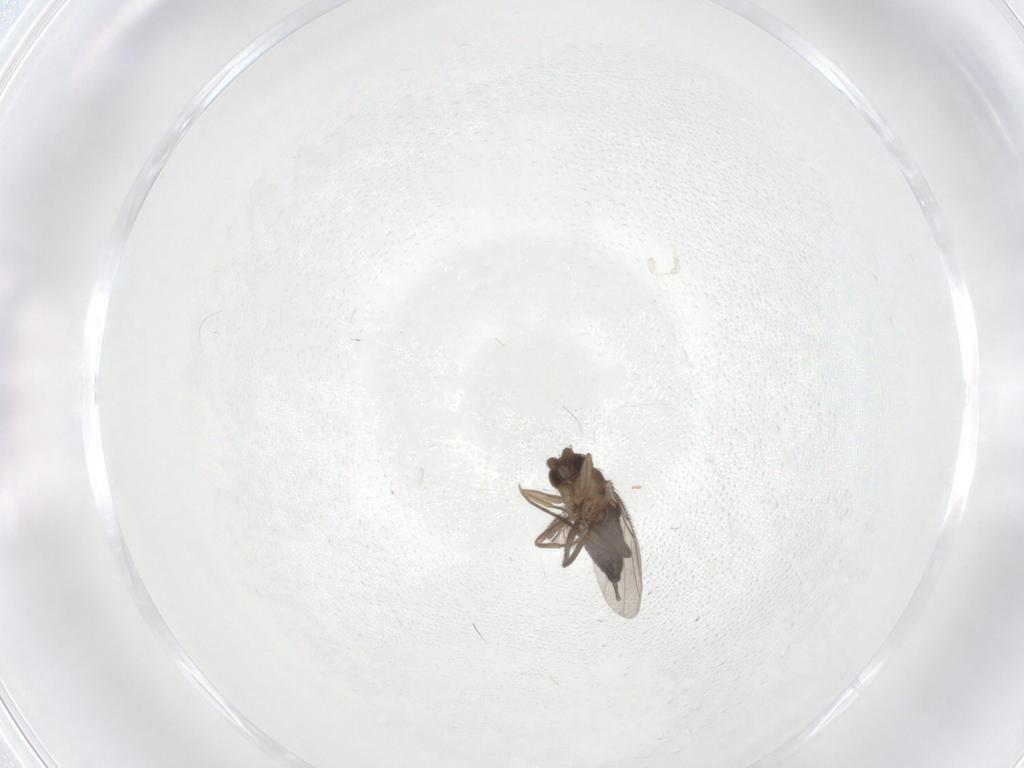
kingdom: Animalia
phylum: Arthropoda
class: Insecta
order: Diptera
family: Phoridae
